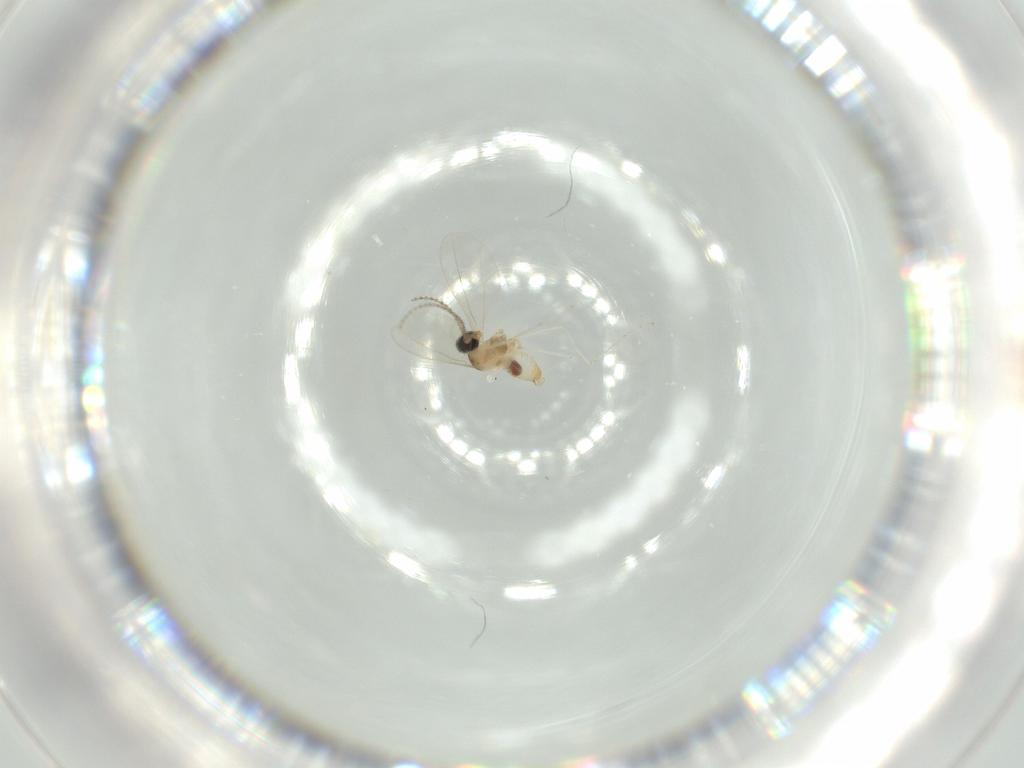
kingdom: Animalia
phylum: Arthropoda
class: Insecta
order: Diptera
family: Cecidomyiidae
